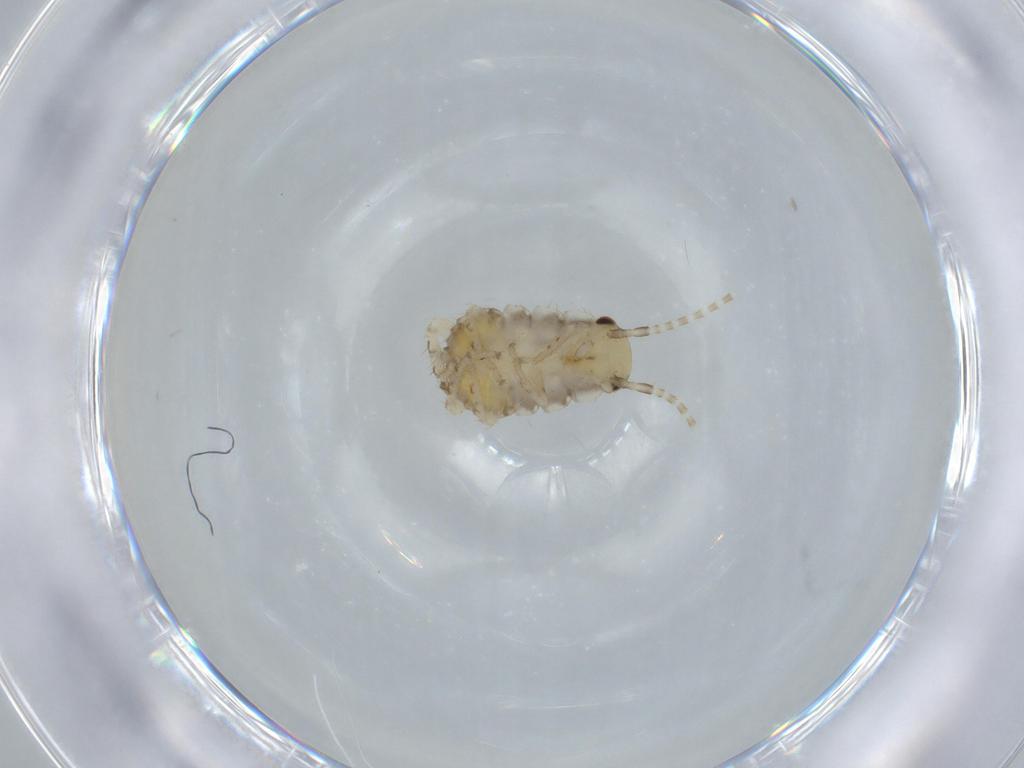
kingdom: Animalia
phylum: Arthropoda
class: Insecta
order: Blattodea
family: Ectobiidae
